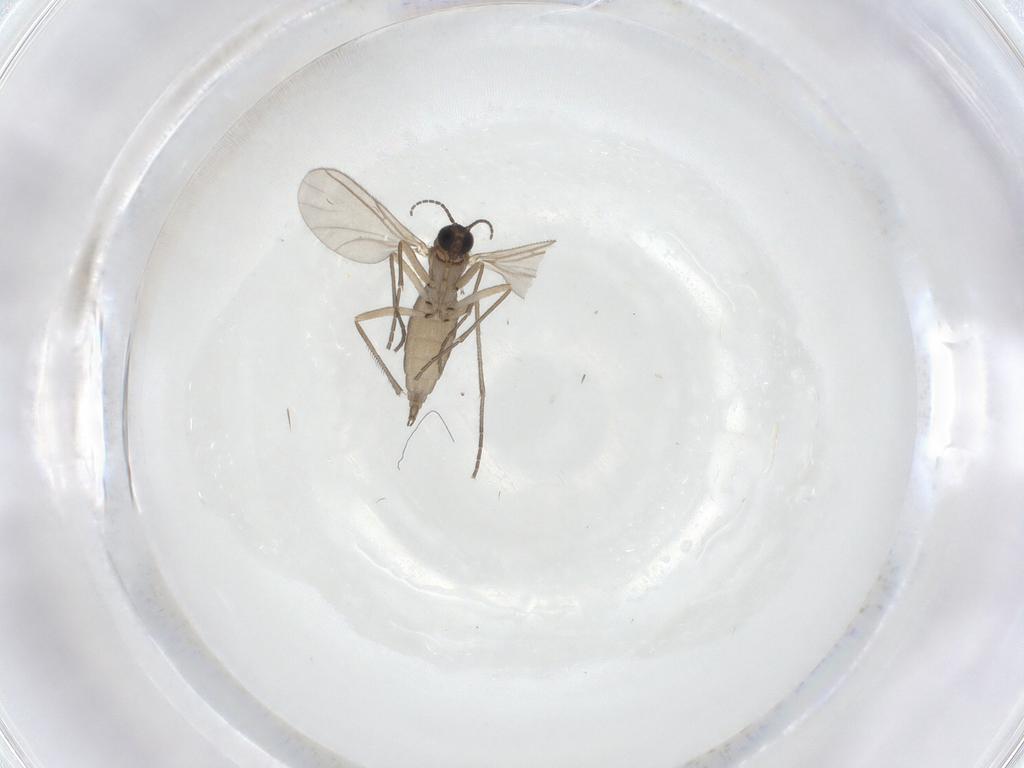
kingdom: Animalia
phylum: Arthropoda
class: Insecta
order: Diptera
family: Sciaridae
